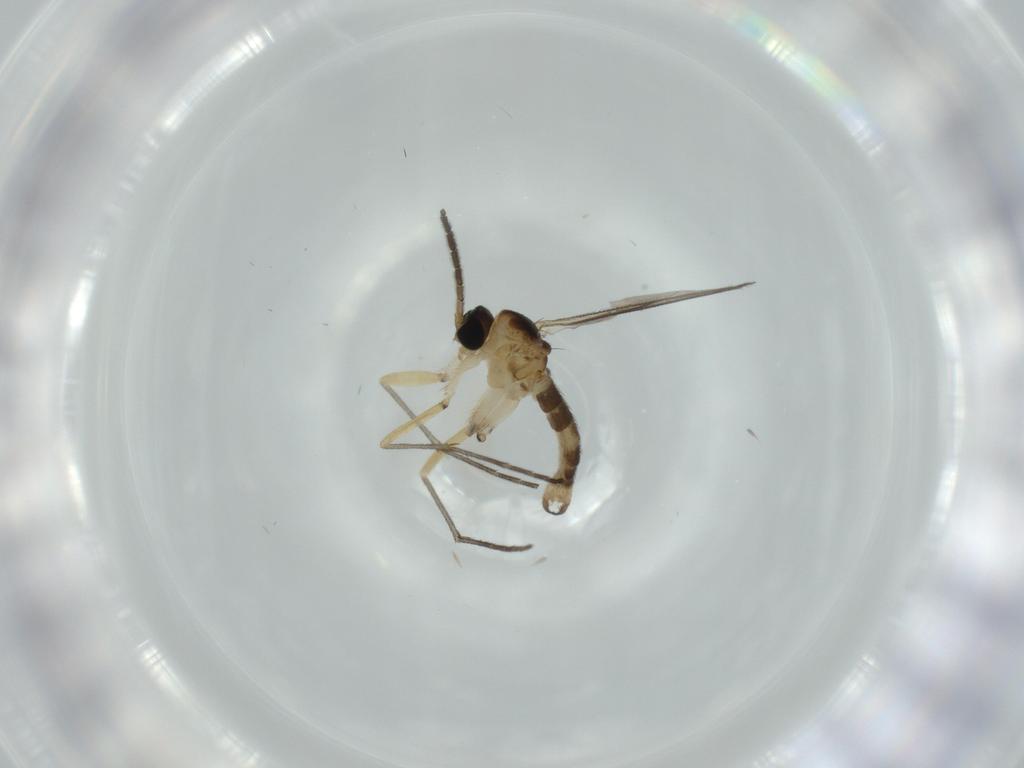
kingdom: Animalia
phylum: Arthropoda
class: Insecta
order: Diptera
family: Sciaridae
